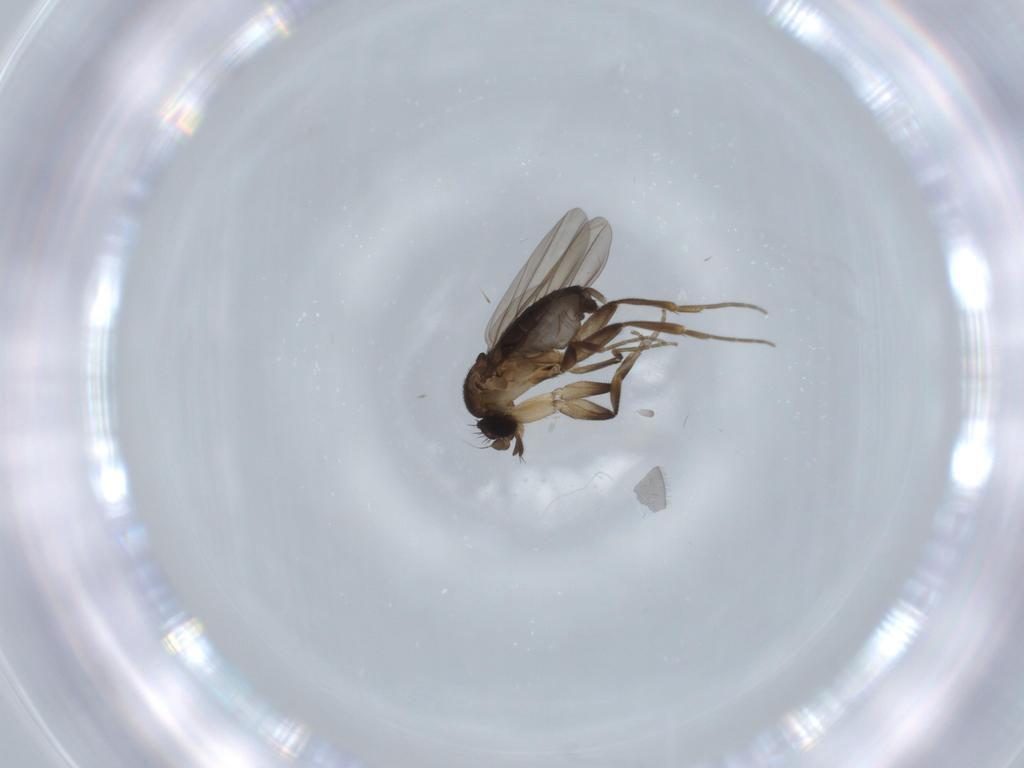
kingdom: Animalia
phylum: Arthropoda
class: Insecta
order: Diptera
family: Phoridae
